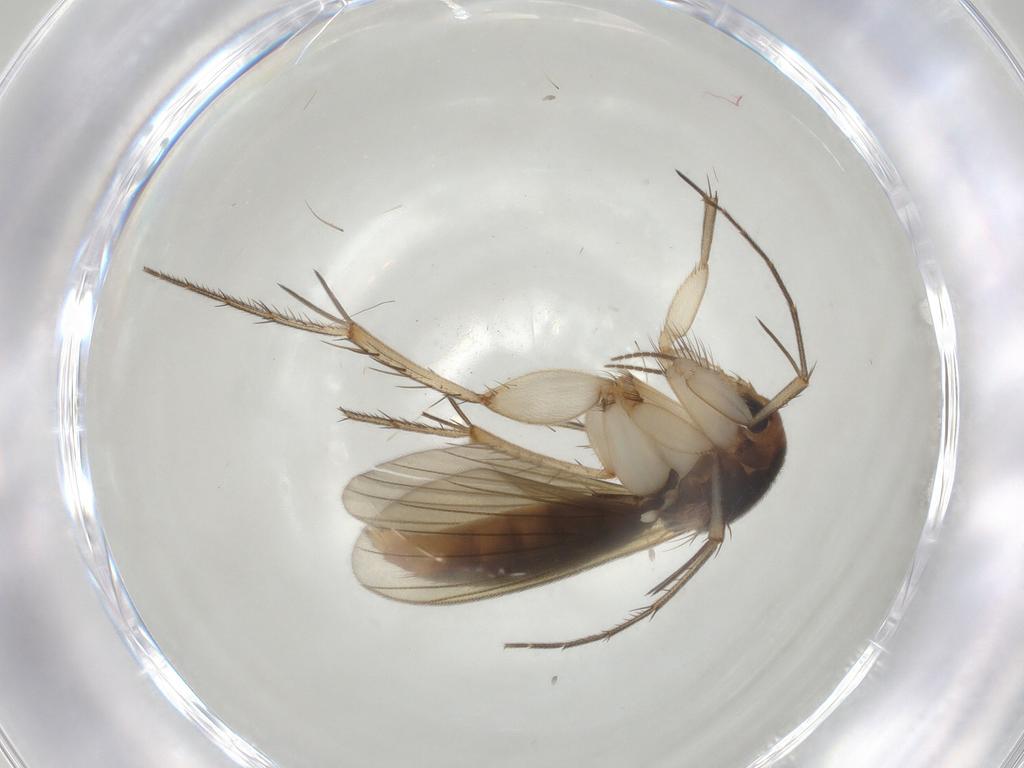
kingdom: Animalia
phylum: Arthropoda
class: Insecta
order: Diptera
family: Mycetophilidae
